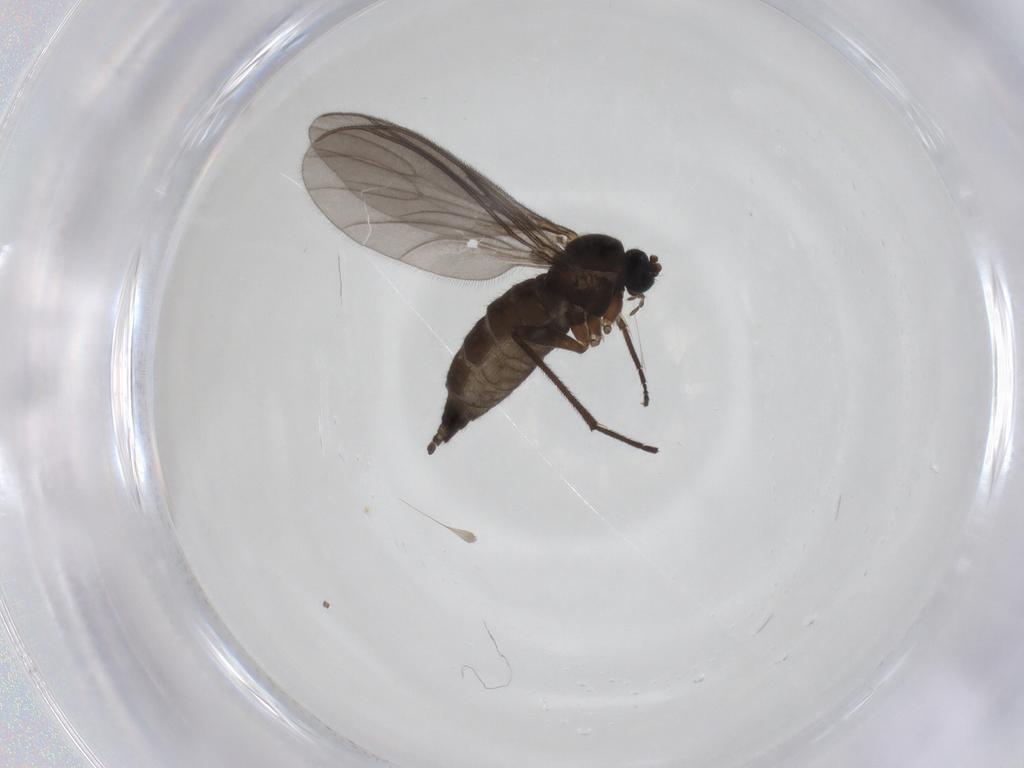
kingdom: Animalia
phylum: Arthropoda
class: Insecta
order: Diptera
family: Sciaridae
